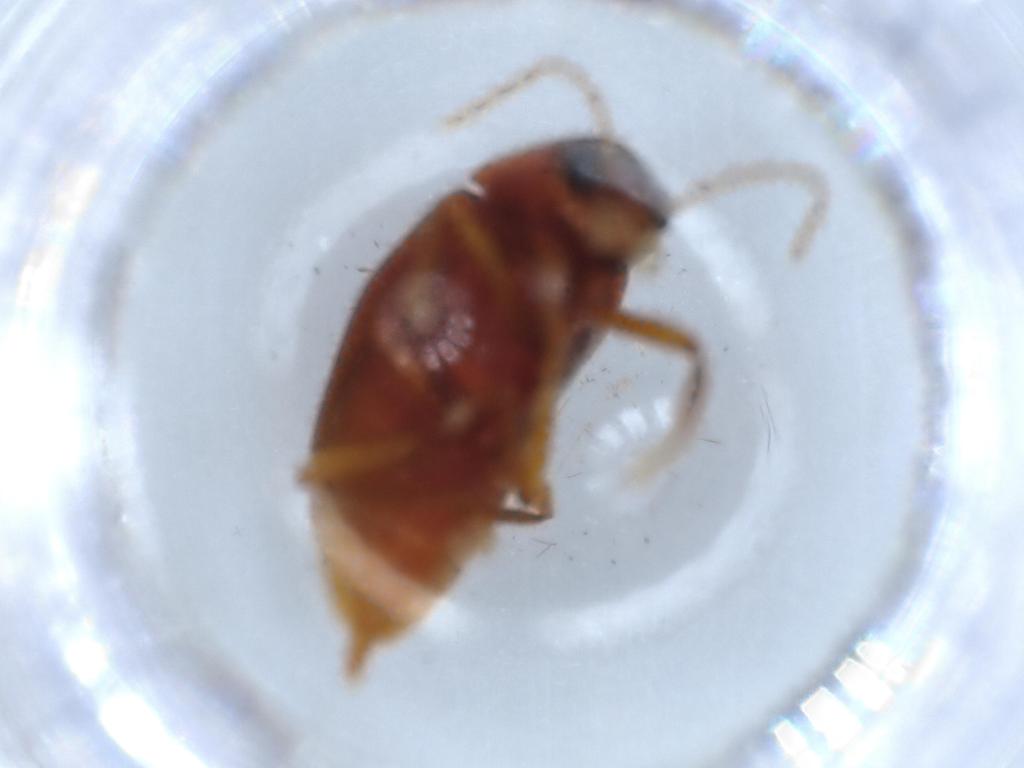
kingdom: Animalia
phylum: Arthropoda
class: Insecta
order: Coleoptera
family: Ptilodactylidae
